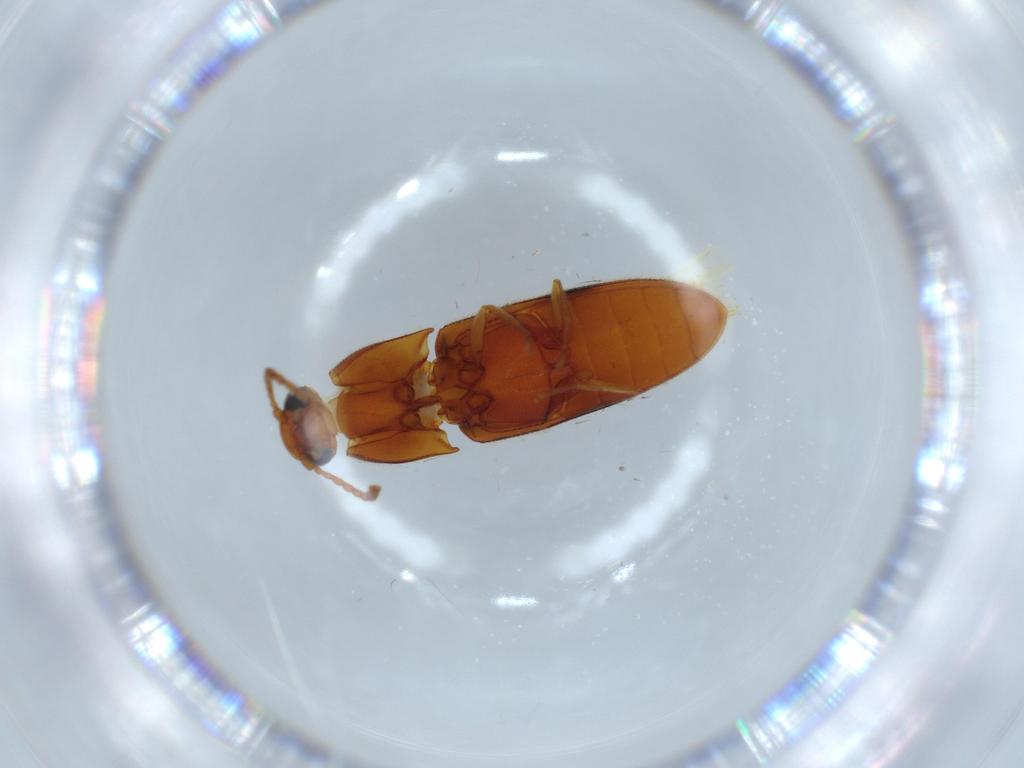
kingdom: Animalia
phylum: Arthropoda
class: Insecta
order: Coleoptera
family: Elateridae
